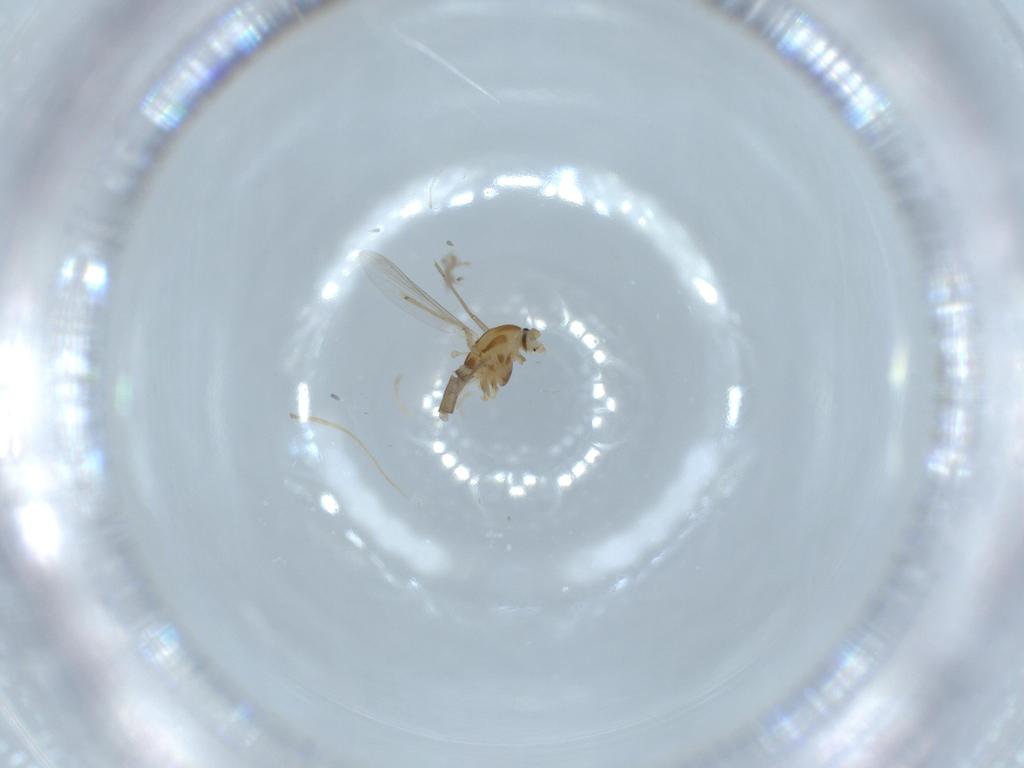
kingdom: Animalia
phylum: Arthropoda
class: Insecta
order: Diptera
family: Chironomidae
